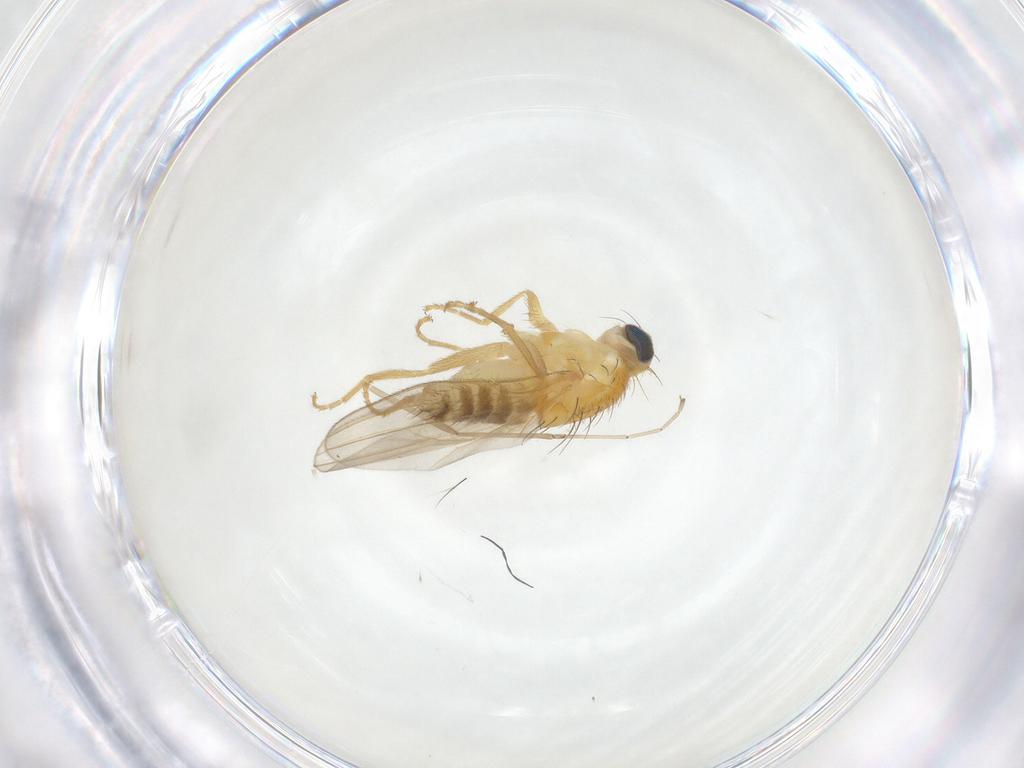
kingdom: Animalia
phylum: Arthropoda
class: Insecta
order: Diptera
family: Chyromyidae
